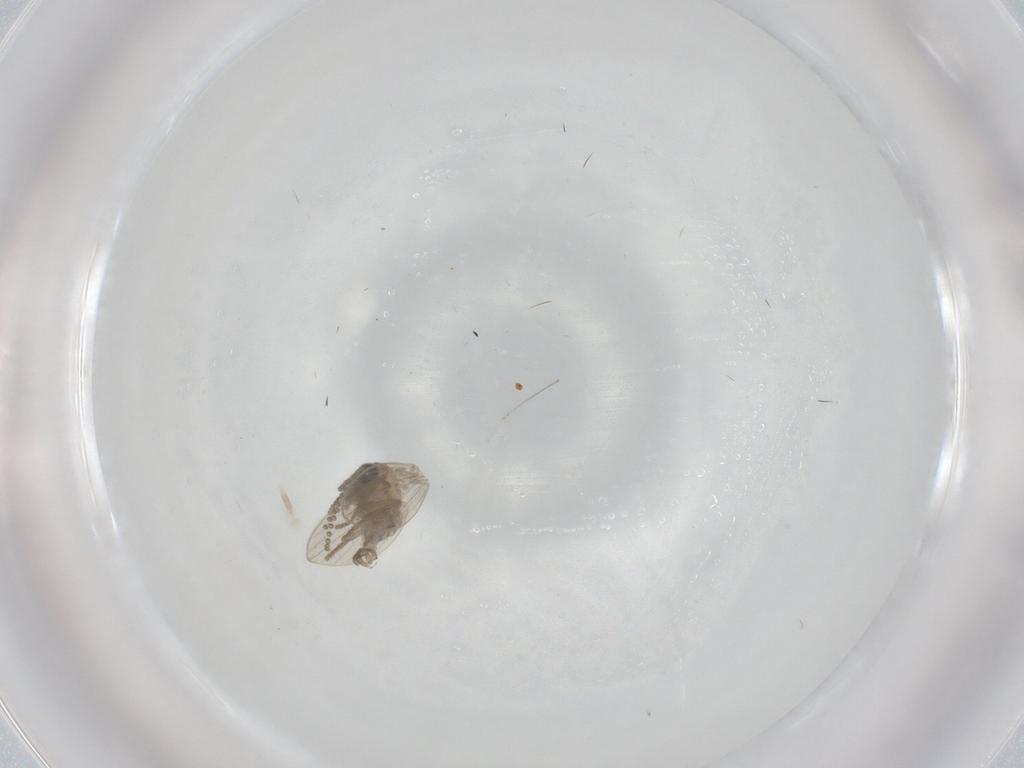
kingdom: Animalia
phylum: Arthropoda
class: Insecta
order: Diptera
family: Psychodidae
